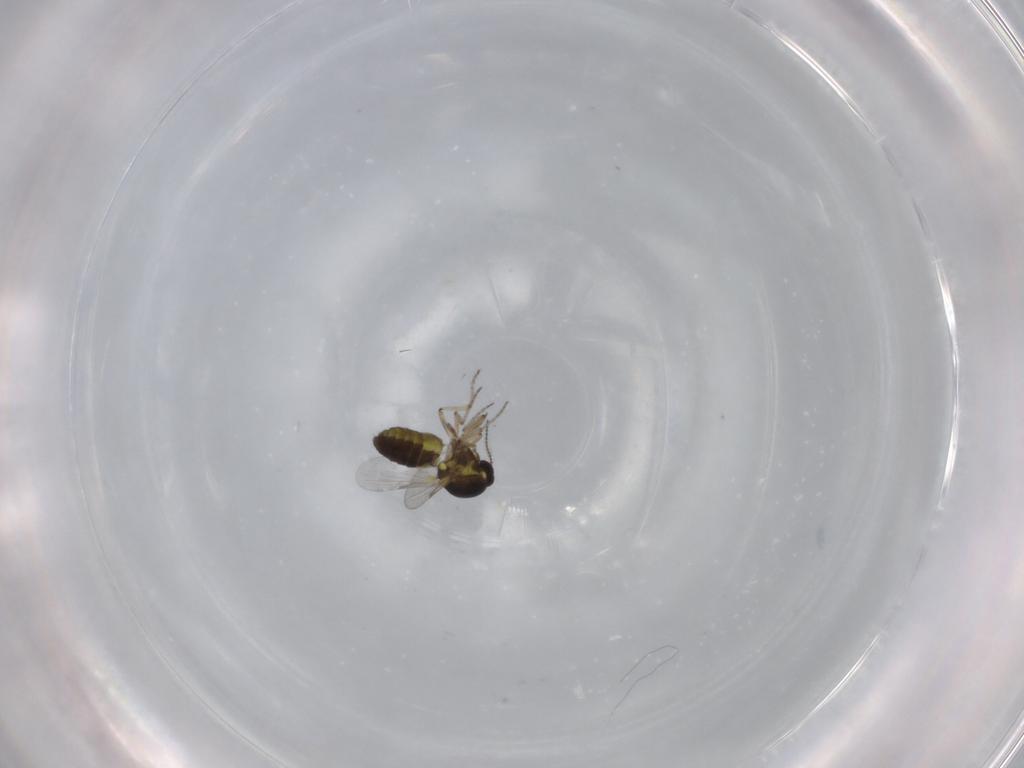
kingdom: Animalia
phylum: Arthropoda
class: Insecta
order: Diptera
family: Ceratopogonidae
